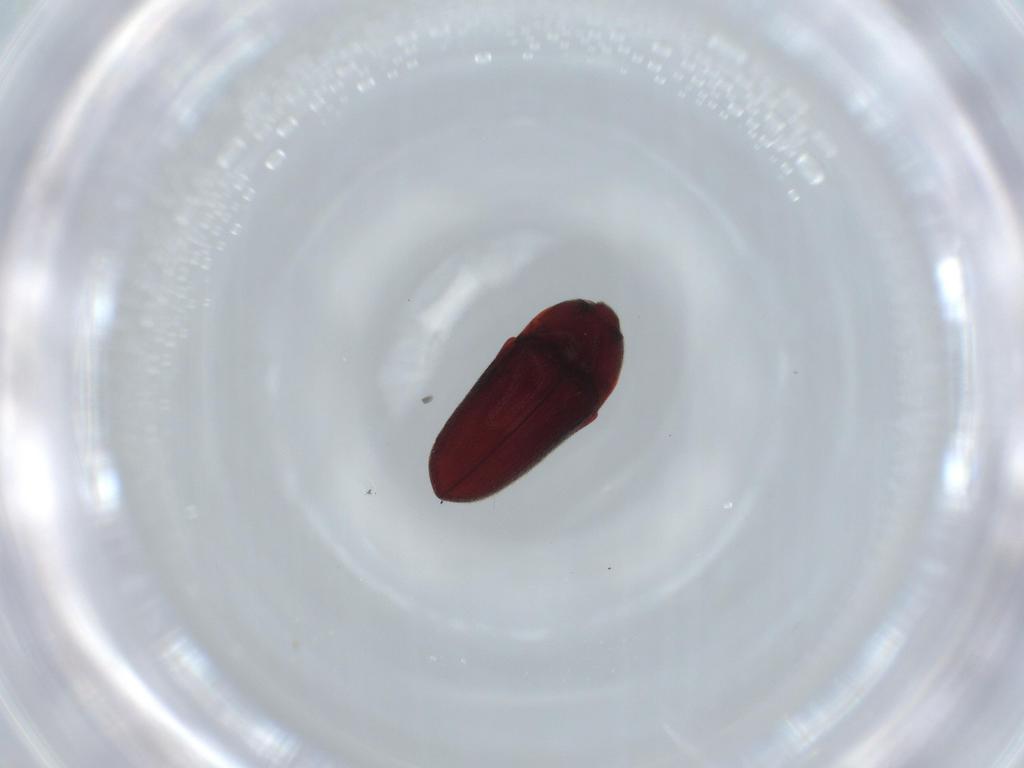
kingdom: Animalia
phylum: Arthropoda
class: Insecta
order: Coleoptera
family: Throscidae
